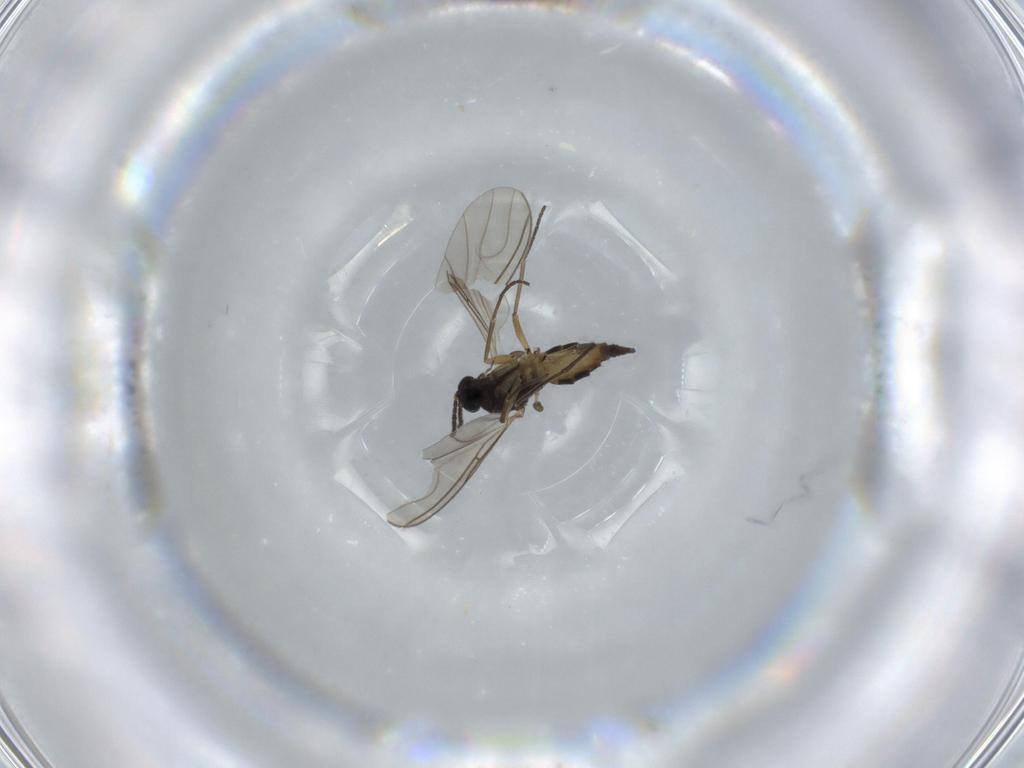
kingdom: Animalia
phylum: Arthropoda
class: Insecta
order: Diptera
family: Sciaridae
